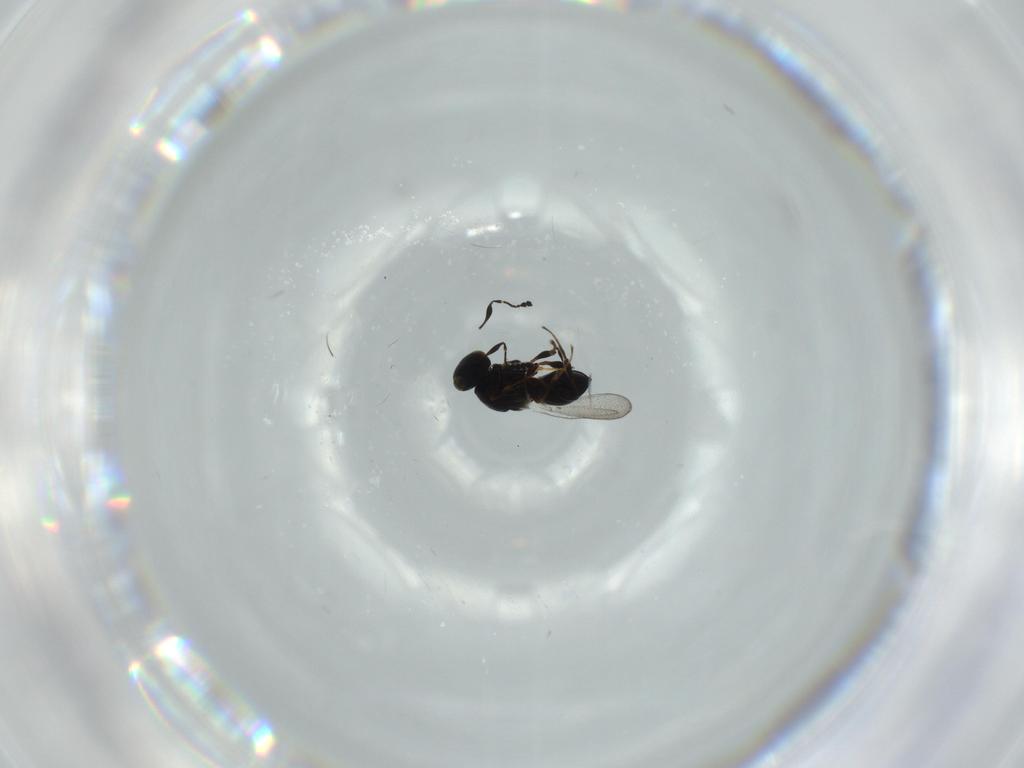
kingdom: Animalia
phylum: Arthropoda
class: Insecta
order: Hymenoptera
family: Platygastridae
